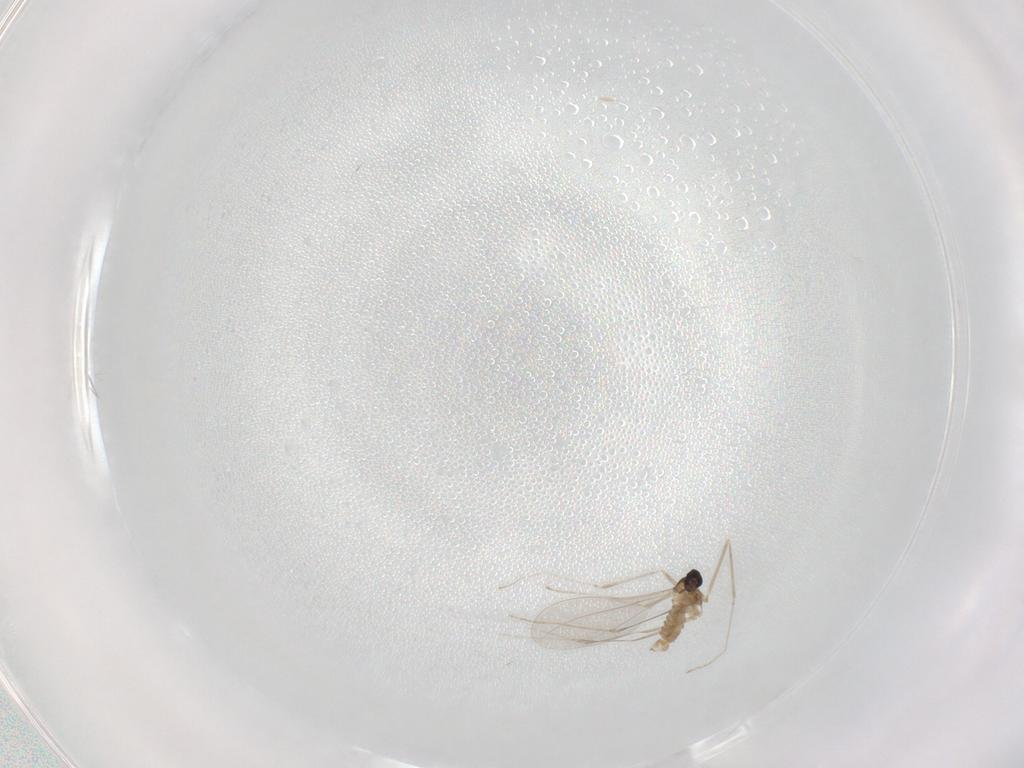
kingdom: Animalia
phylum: Arthropoda
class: Insecta
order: Diptera
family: Cecidomyiidae
